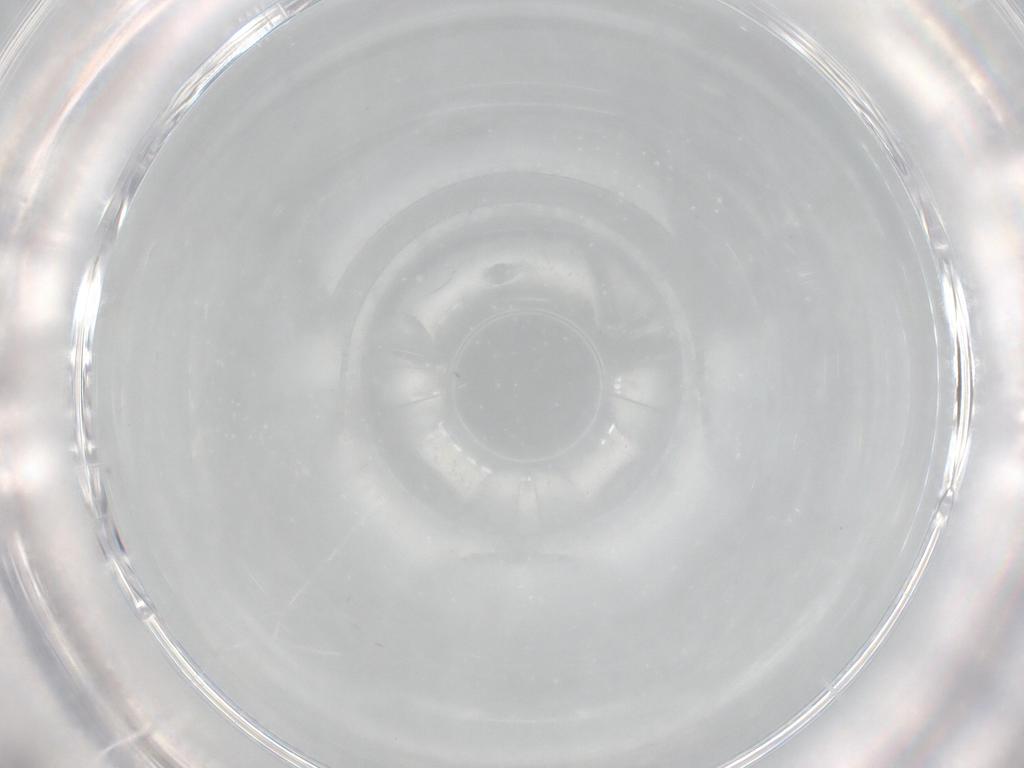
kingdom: Animalia
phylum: Arthropoda
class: Insecta
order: Diptera
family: Cecidomyiidae
